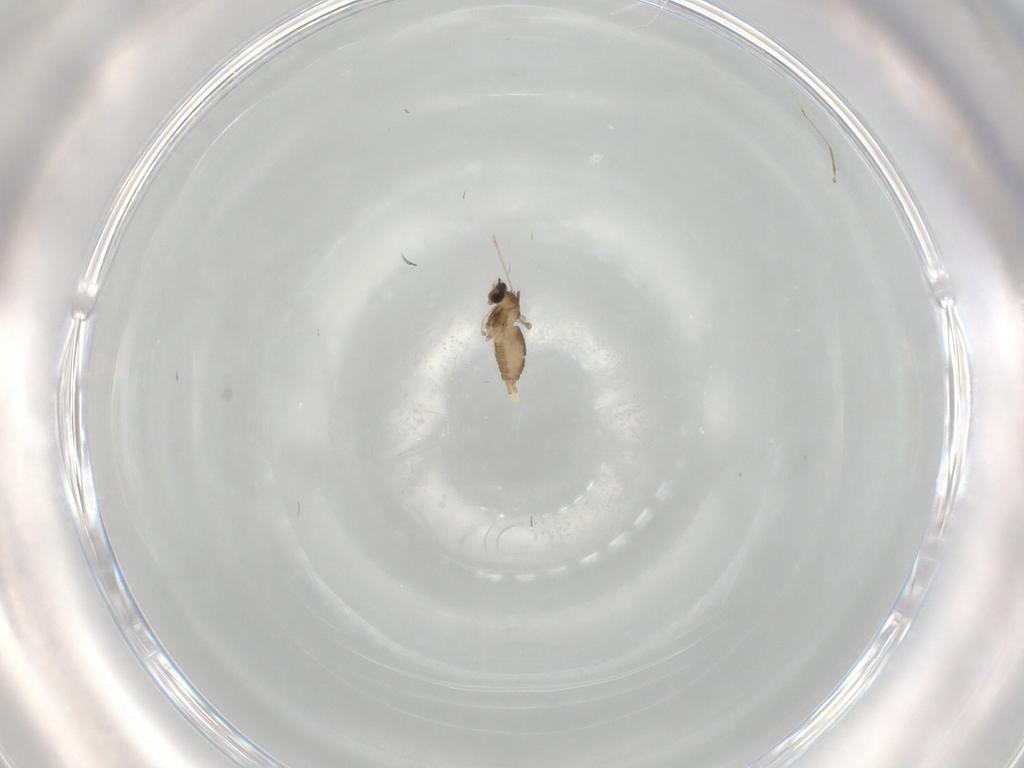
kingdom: Animalia
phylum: Arthropoda
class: Insecta
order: Diptera
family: Cecidomyiidae
